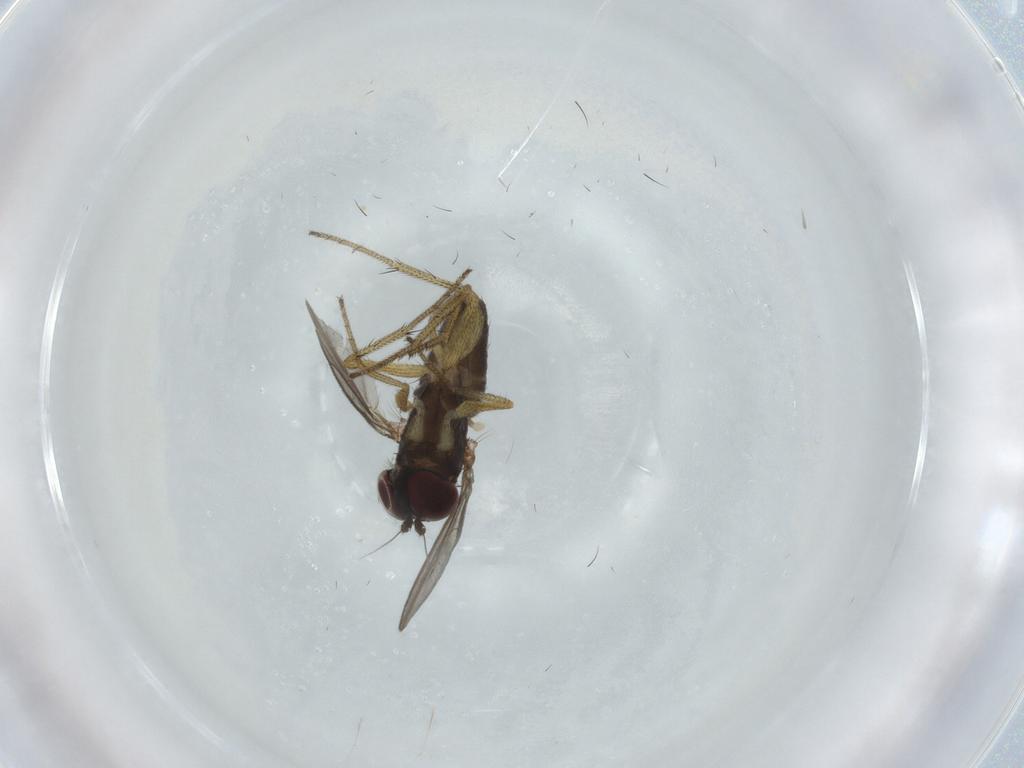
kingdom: Animalia
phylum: Arthropoda
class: Insecta
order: Diptera
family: Dolichopodidae
